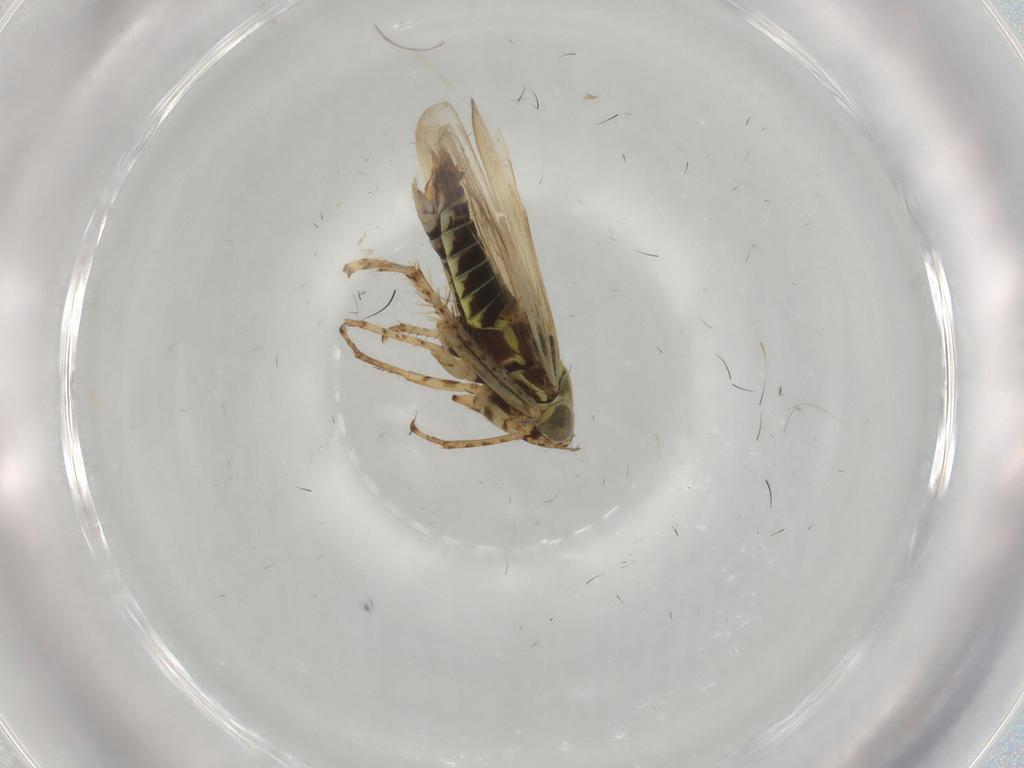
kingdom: Animalia
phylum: Arthropoda
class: Insecta
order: Hemiptera
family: Cicadellidae
